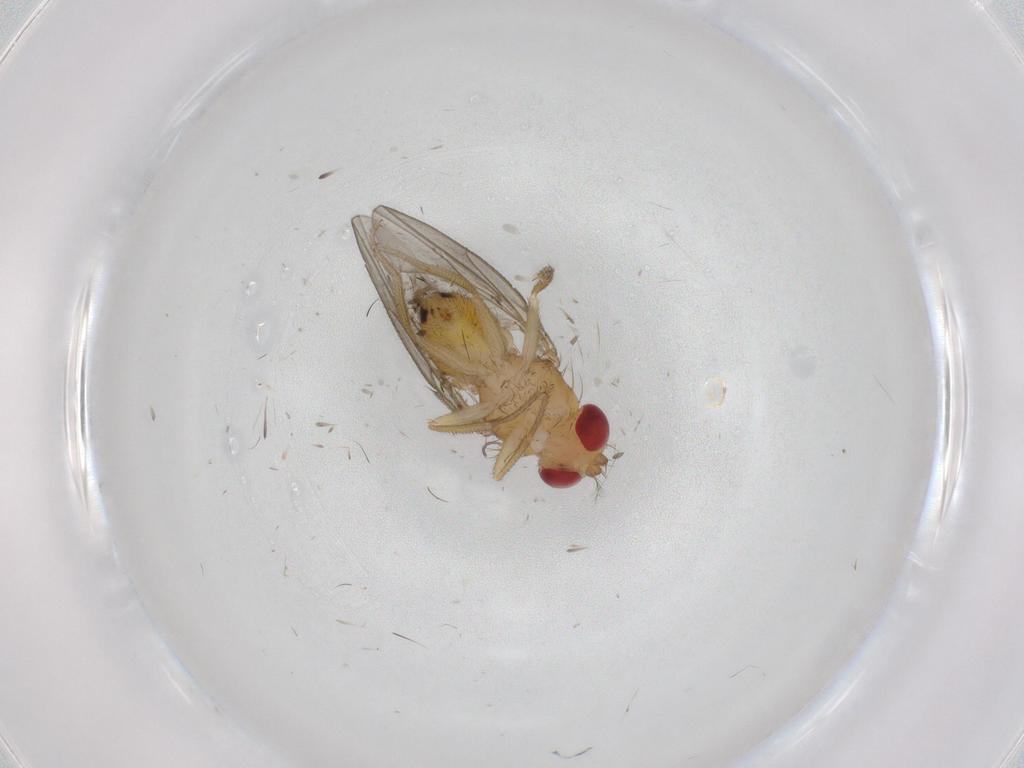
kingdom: Animalia
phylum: Arthropoda
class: Insecta
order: Diptera
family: Drosophilidae
